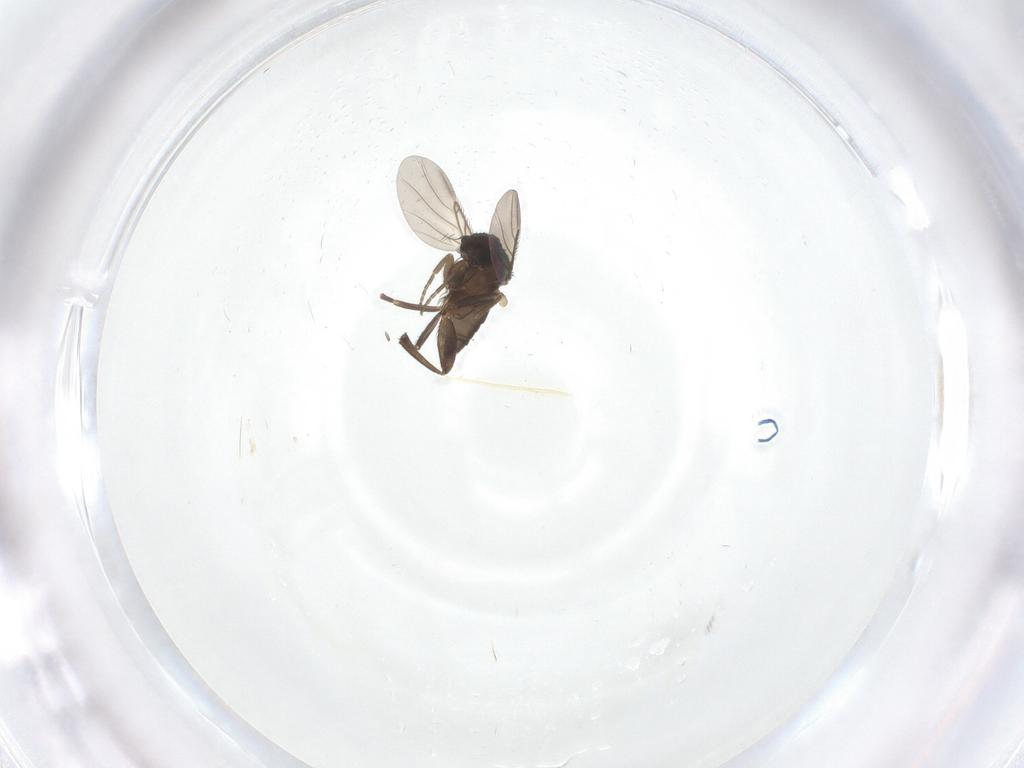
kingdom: Animalia
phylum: Arthropoda
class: Insecta
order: Diptera
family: Phoridae
